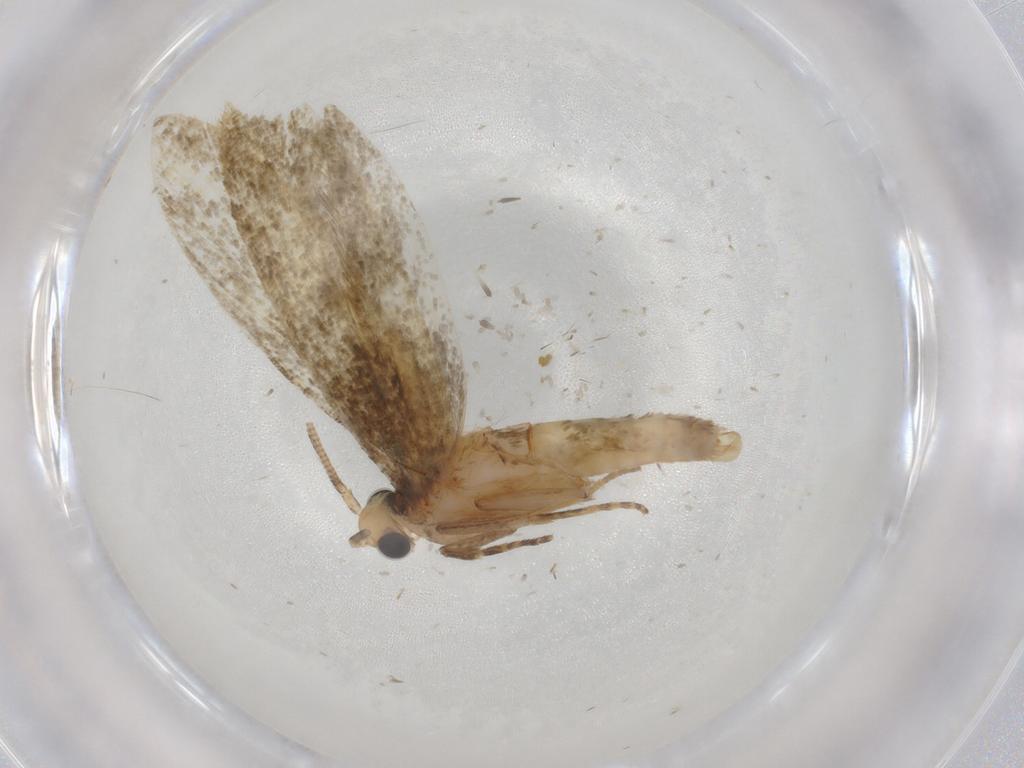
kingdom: Animalia
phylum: Arthropoda
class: Insecta
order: Lepidoptera
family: Tineidae
